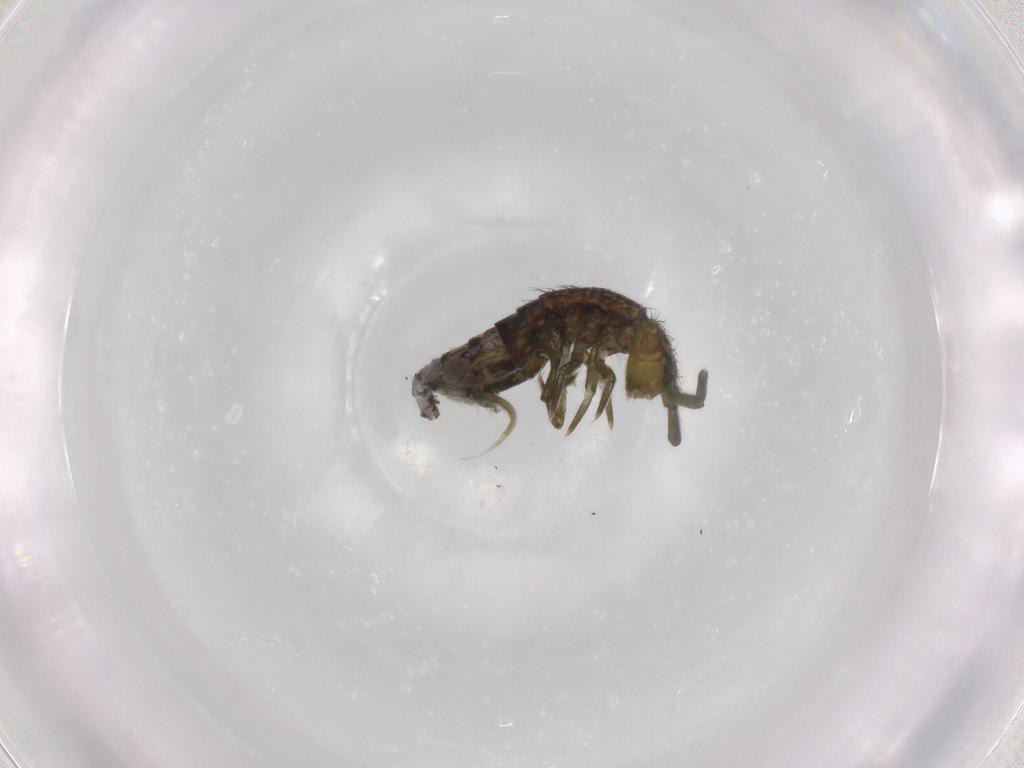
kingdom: Animalia
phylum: Arthropoda
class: Collembola
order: Entomobryomorpha
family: Isotomidae
